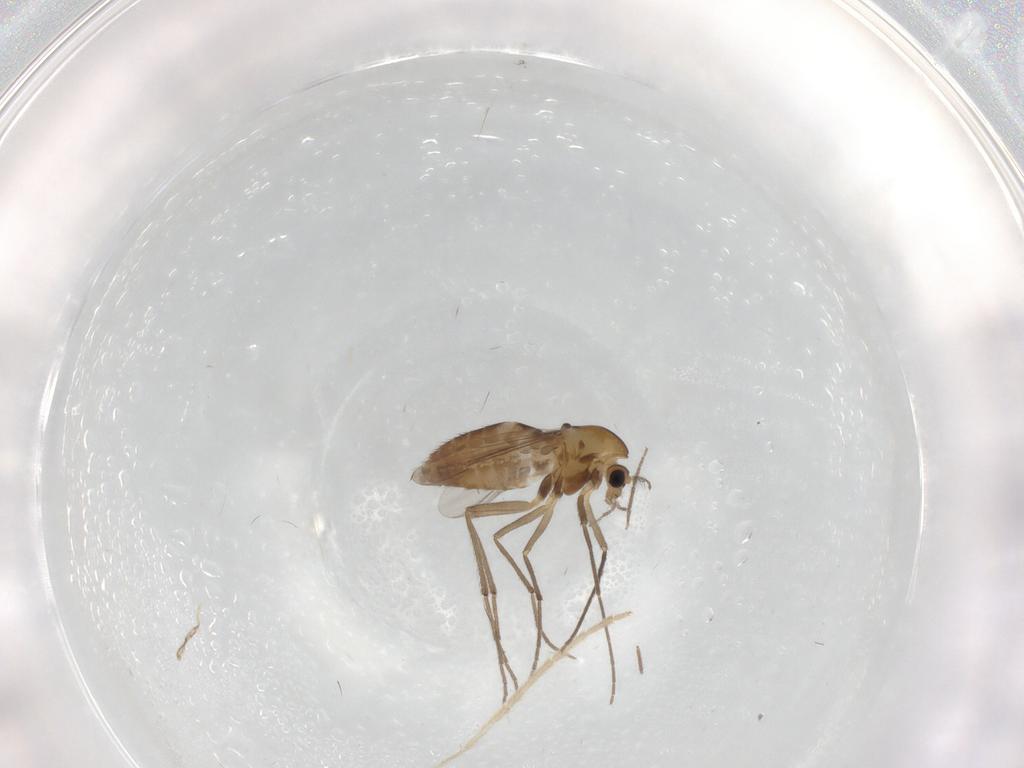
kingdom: Animalia
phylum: Arthropoda
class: Insecta
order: Diptera
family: Chironomidae
